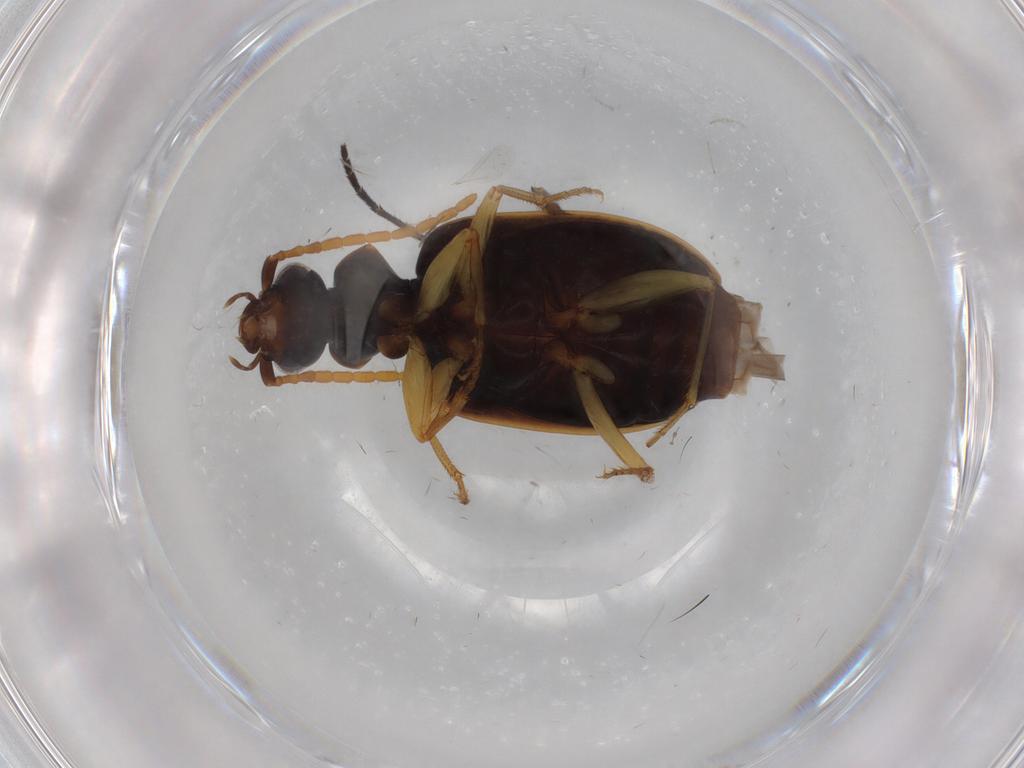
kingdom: Animalia
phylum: Arthropoda
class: Insecta
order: Coleoptera
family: Carabidae
